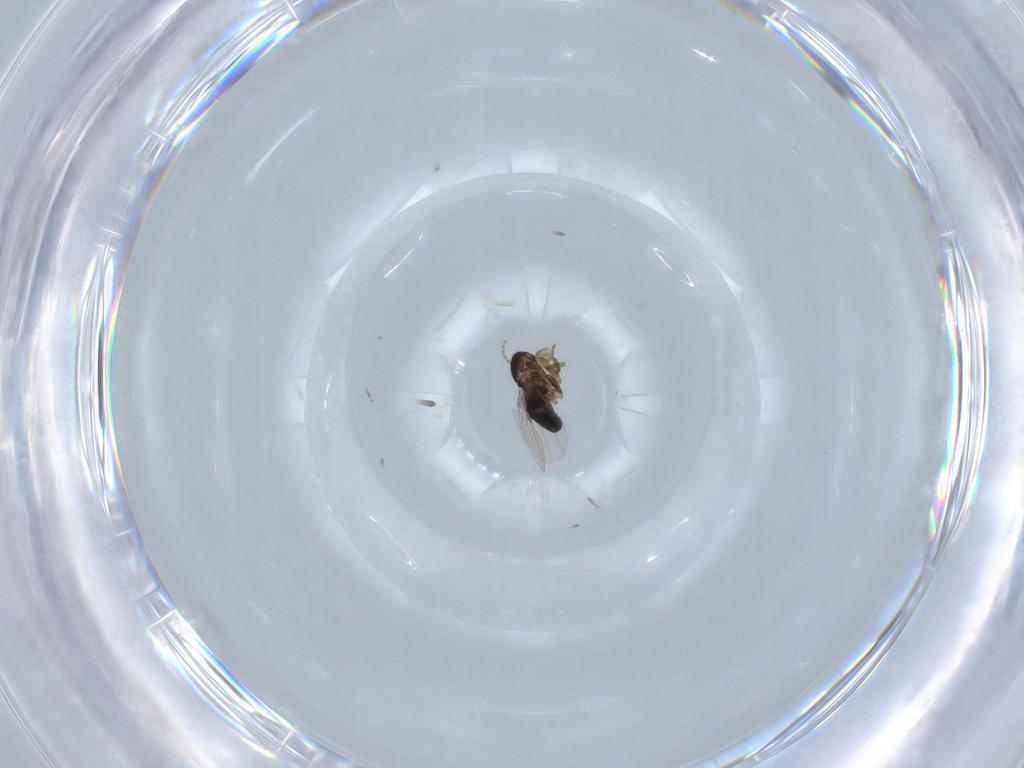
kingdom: Animalia
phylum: Arthropoda
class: Insecta
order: Diptera
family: Phoridae
